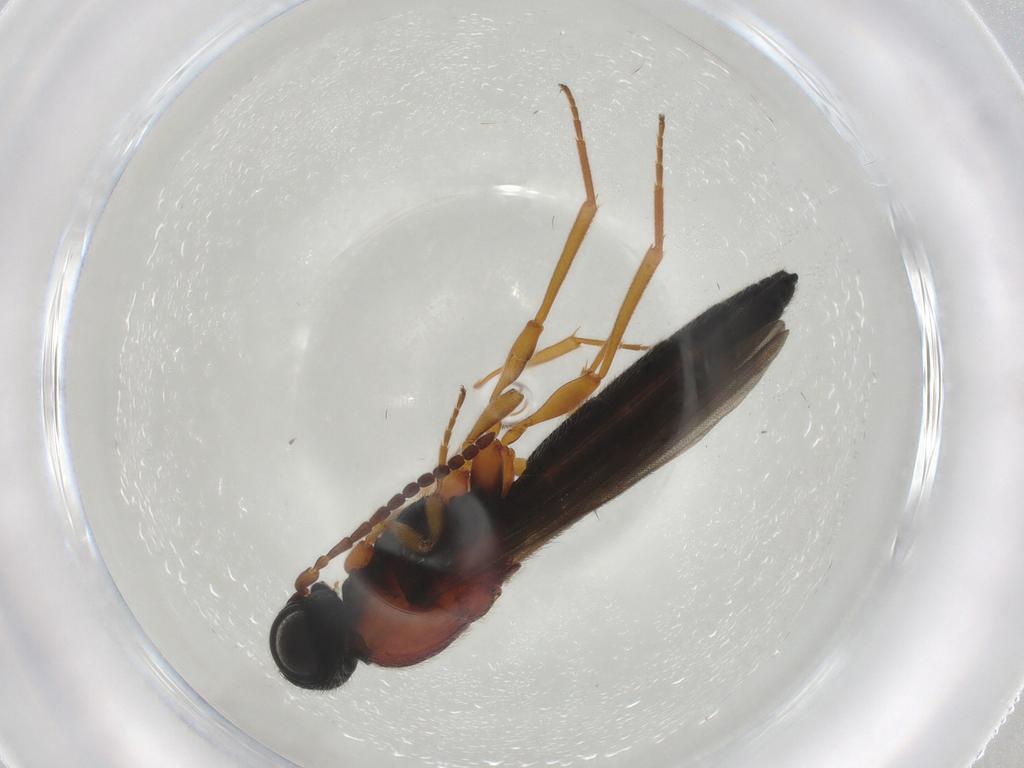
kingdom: Animalia
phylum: Arthropoda
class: Insecta
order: Hymenoptera
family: Scelionidae
